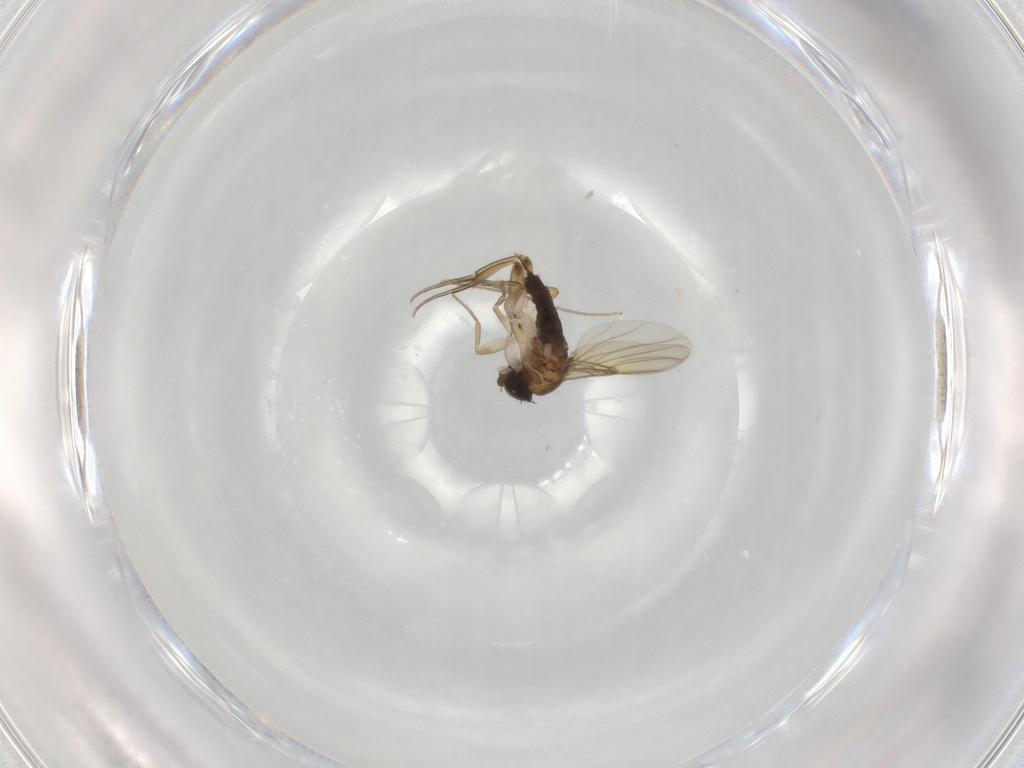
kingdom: Animalia
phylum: Arthropoda
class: Insecta
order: Diptera
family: Phoridae
